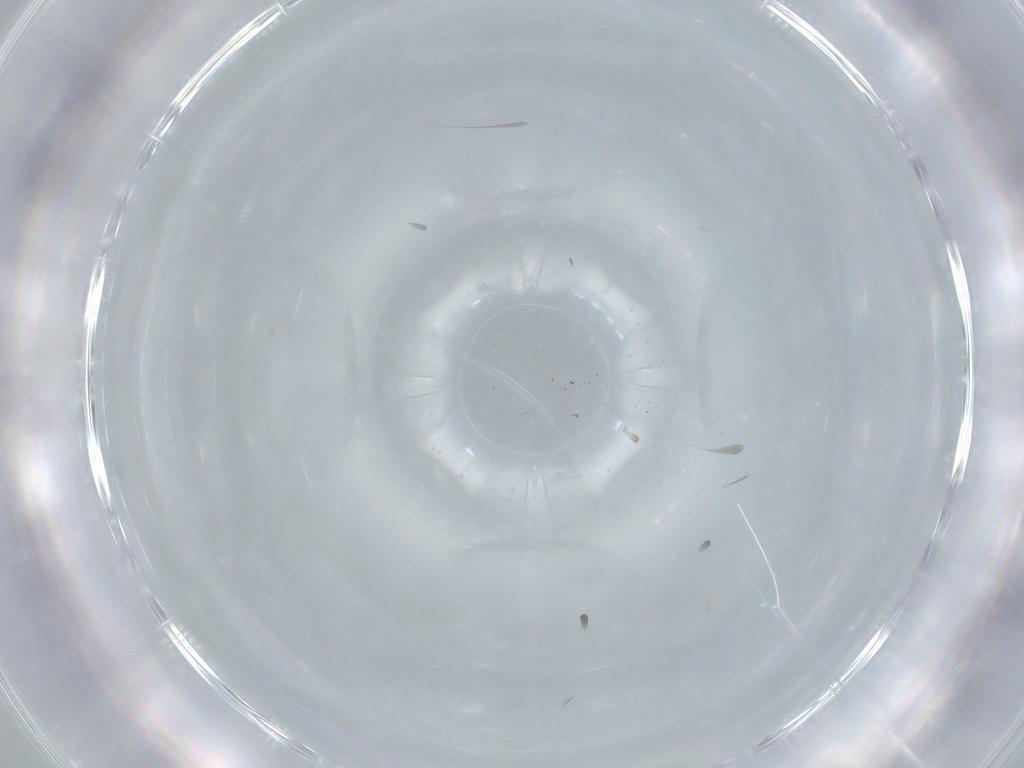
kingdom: Animalia
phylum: Arthropoda
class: Insecta
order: Diptera
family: Cecidomyiidae
